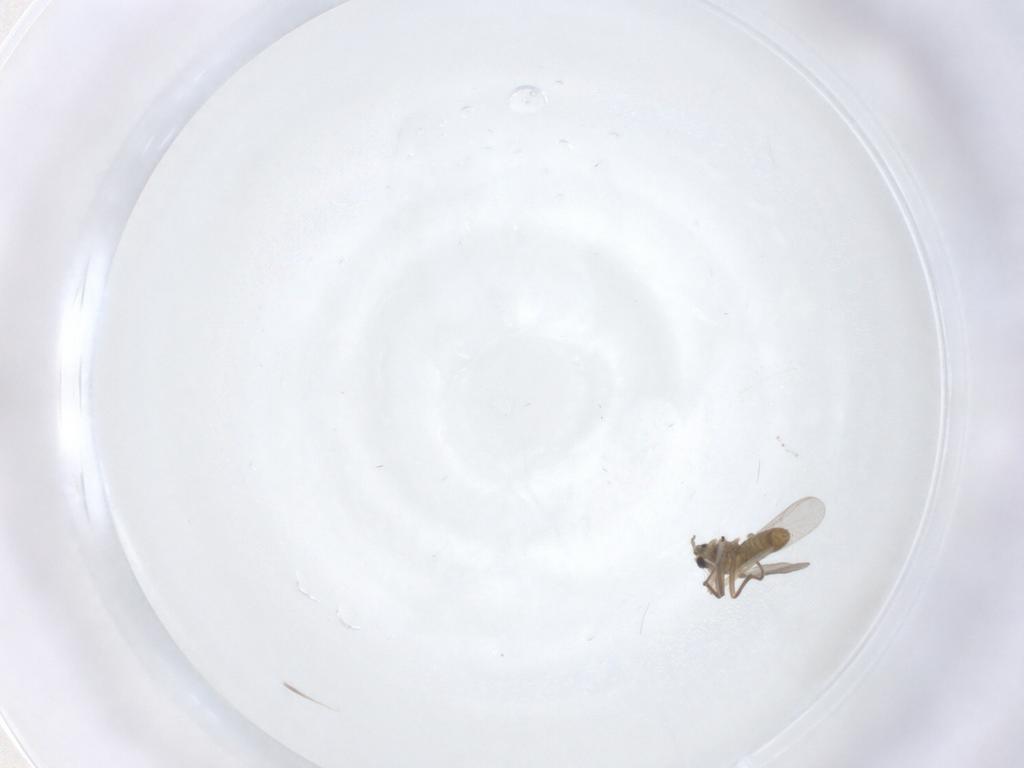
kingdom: Animalia
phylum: Arthropoda
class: Insecta
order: Diptera
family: Chironomidae
